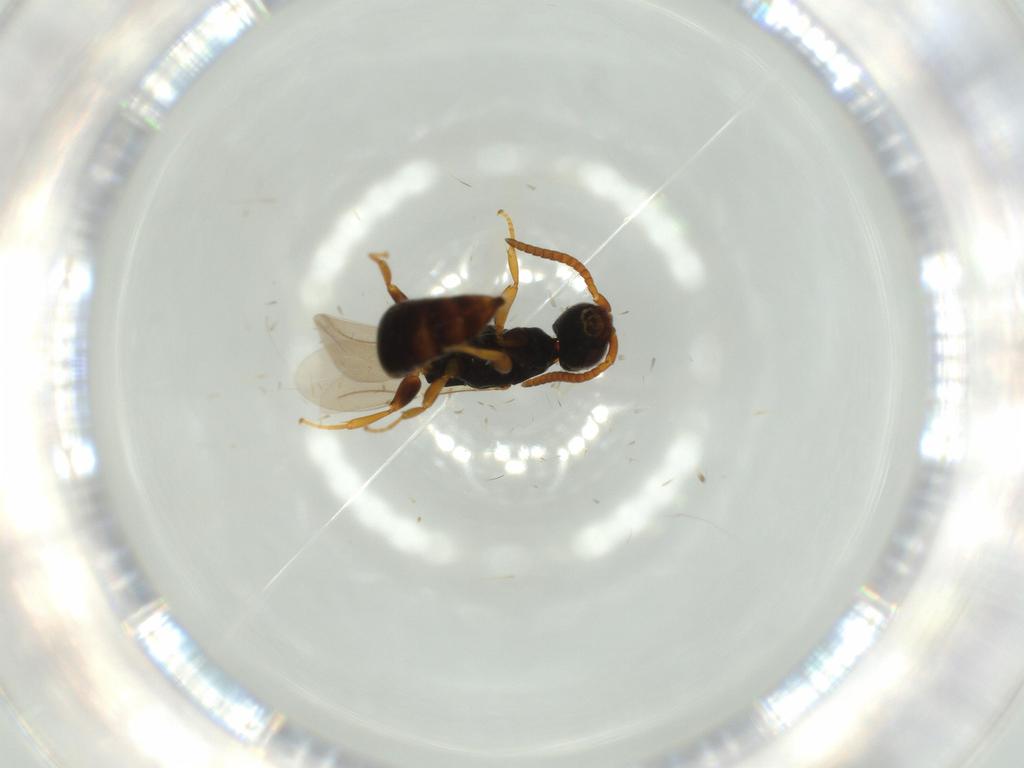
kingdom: Animalia
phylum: Arthropoda
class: Insecta
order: Hymenoptera
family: Bethylidae
